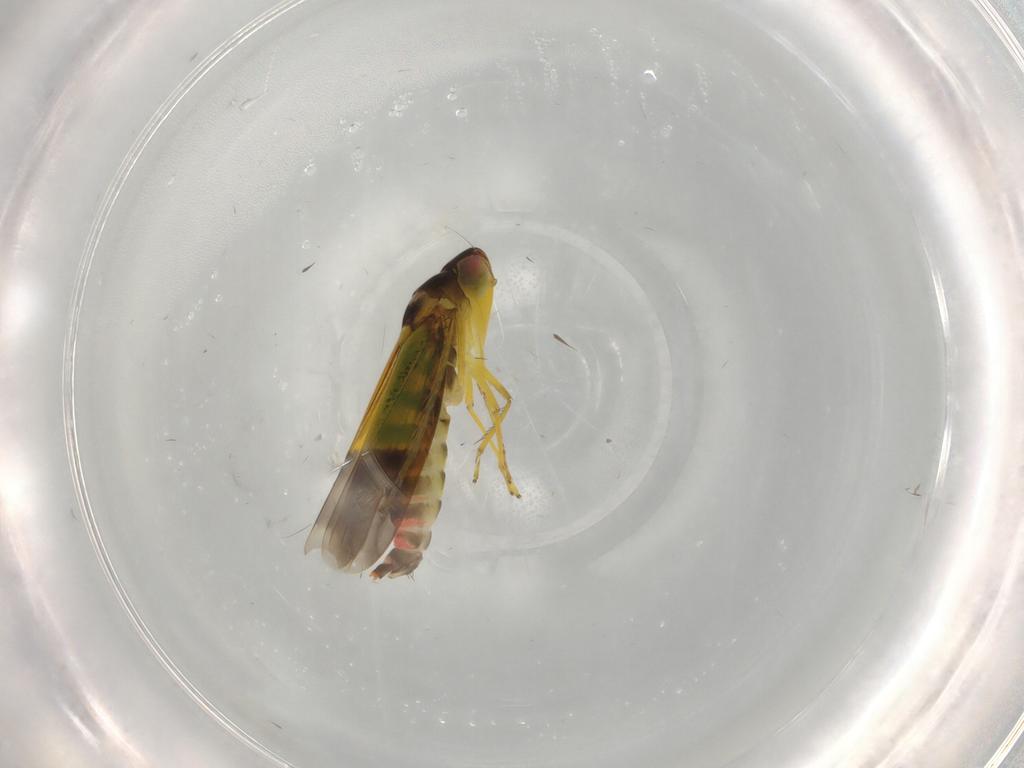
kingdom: Animalia
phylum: Arthropoda
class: Insecta
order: Hemiptera
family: Cicadellidae
